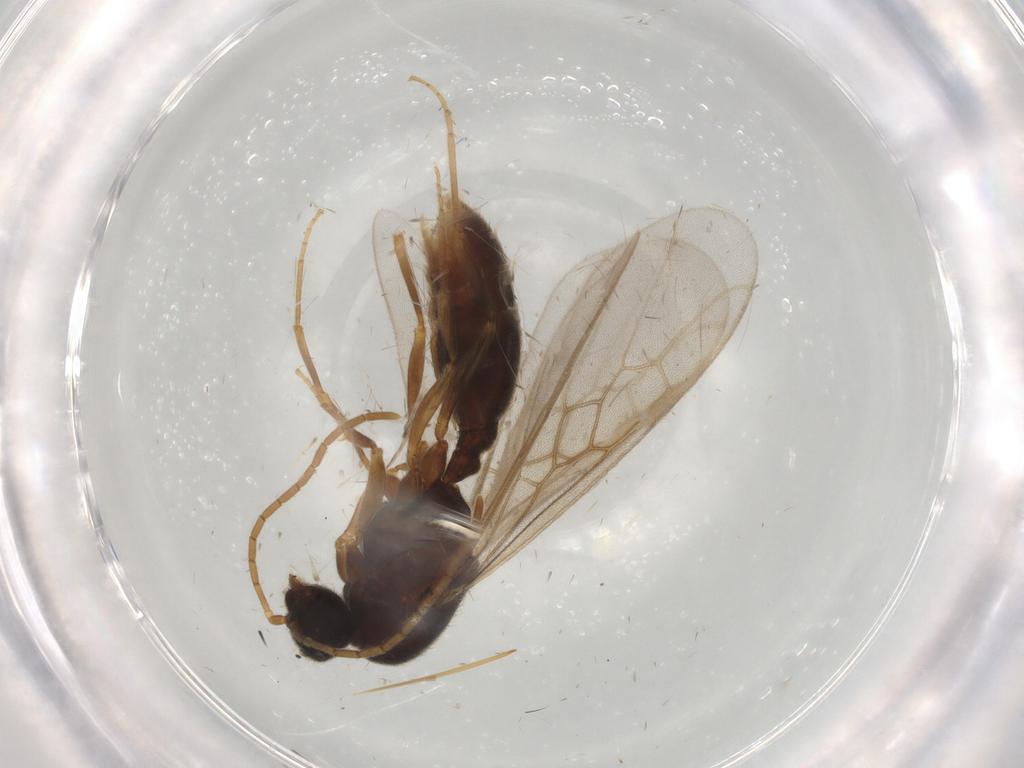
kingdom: Animalia
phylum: Arthropoda
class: Insecta
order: Hymenoptera
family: Formicidae
